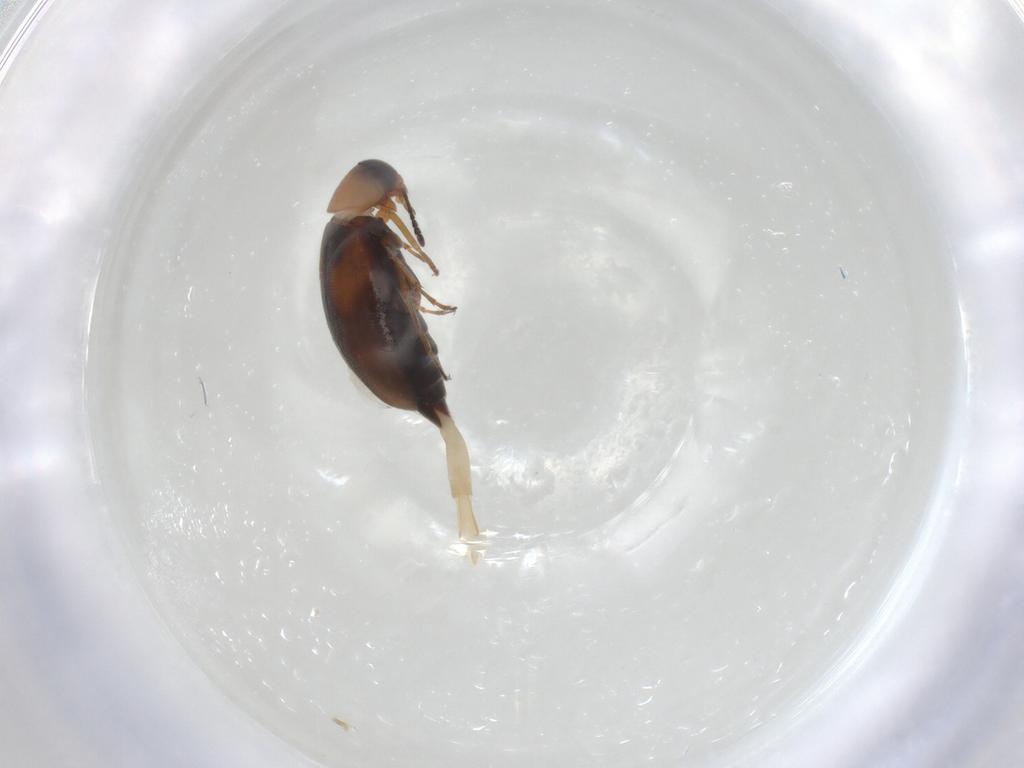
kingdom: Animalia
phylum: Arthropoda
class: Insecta
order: Coleoptera
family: Scraptiidae
